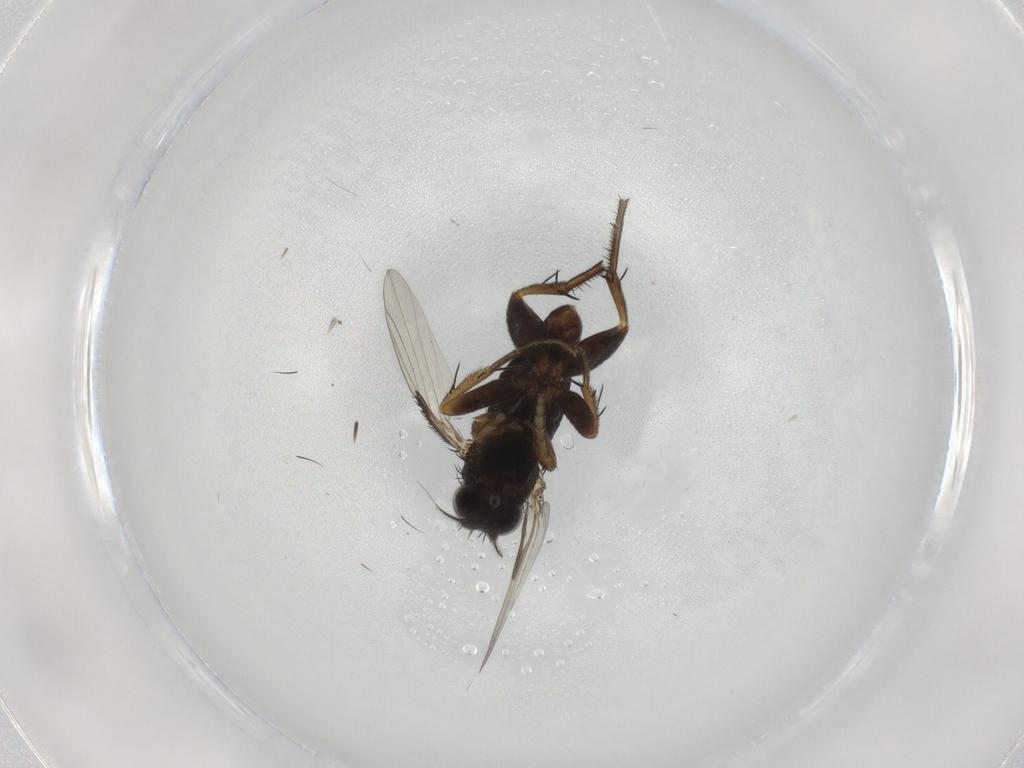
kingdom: Animalia
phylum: Arthropoda
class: Insecta
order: Diptera
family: Phoridae
